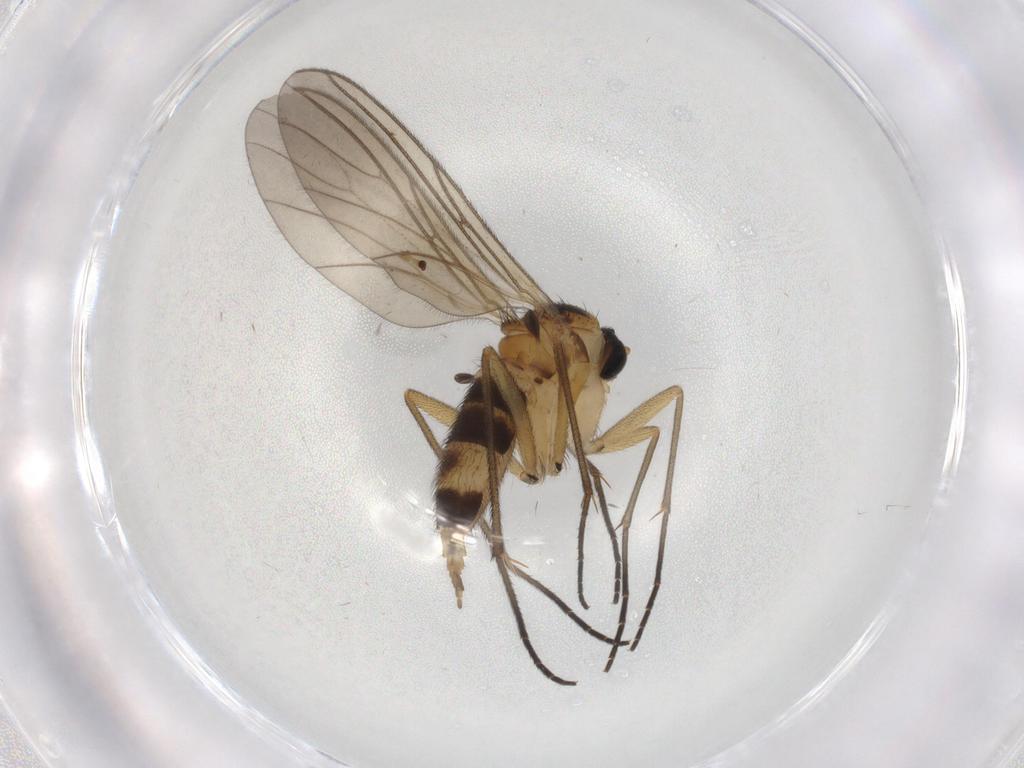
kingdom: Animalia
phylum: Arthropoda
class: Insecta
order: Diptera
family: Sciaridae
